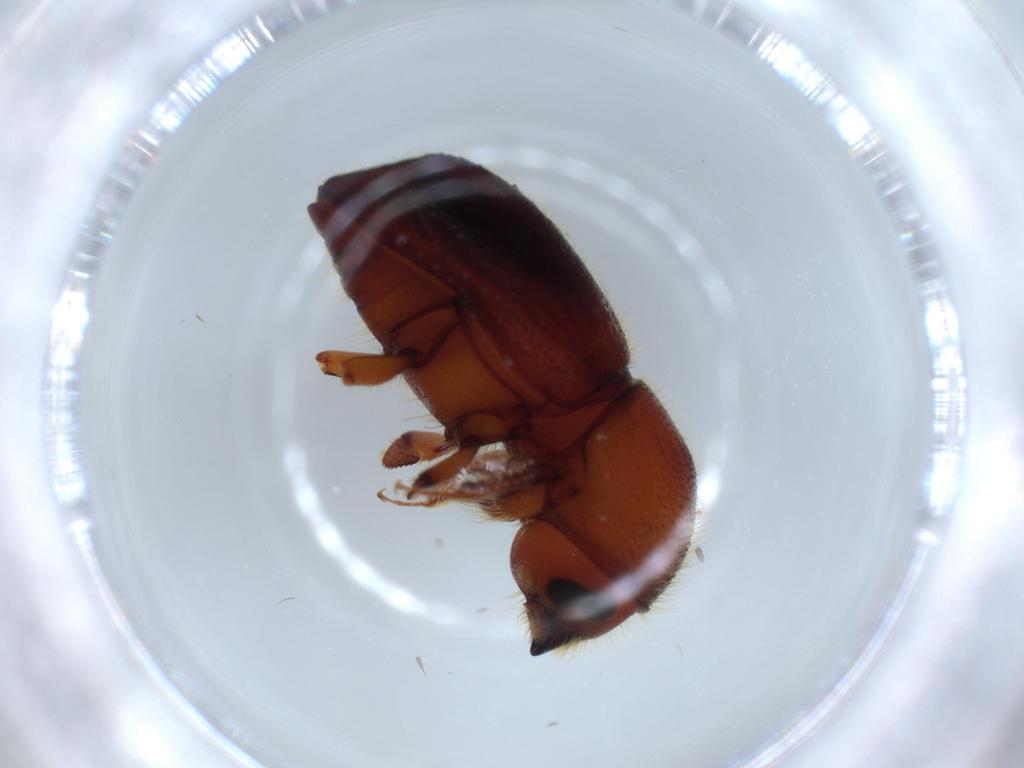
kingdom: Animalia
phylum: Arthropoda
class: Insecta
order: Coleoptera
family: Curculionidae
